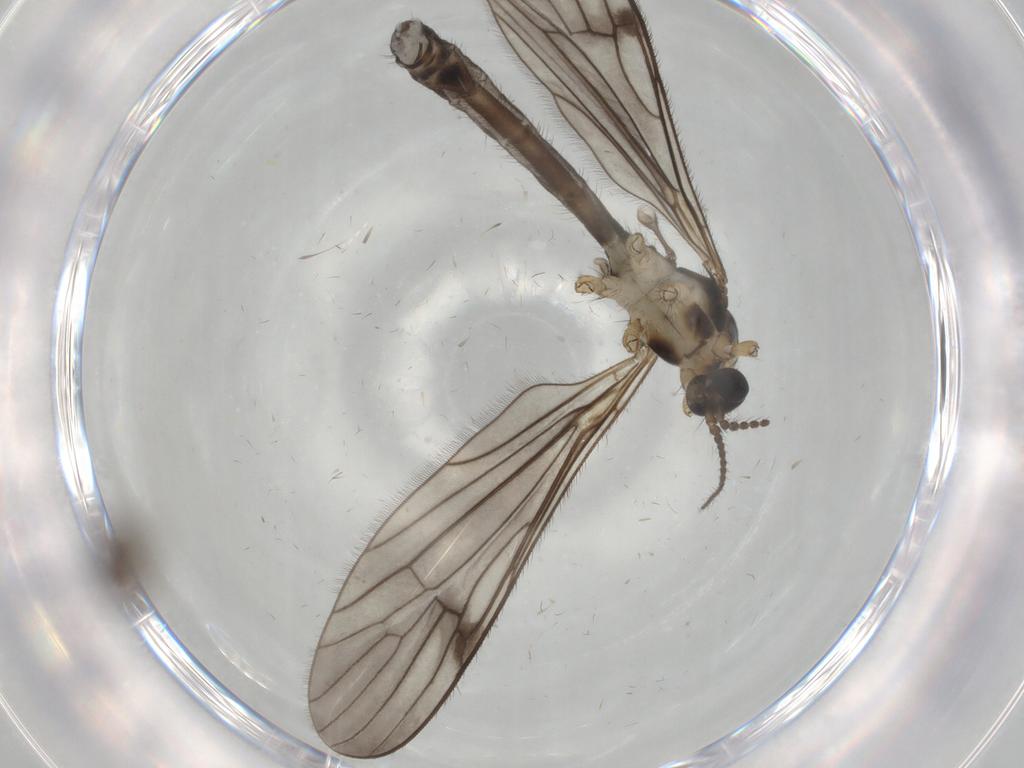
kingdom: Animalia
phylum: Arthropoda
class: Insecta
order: Diptera
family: Limoniidae
